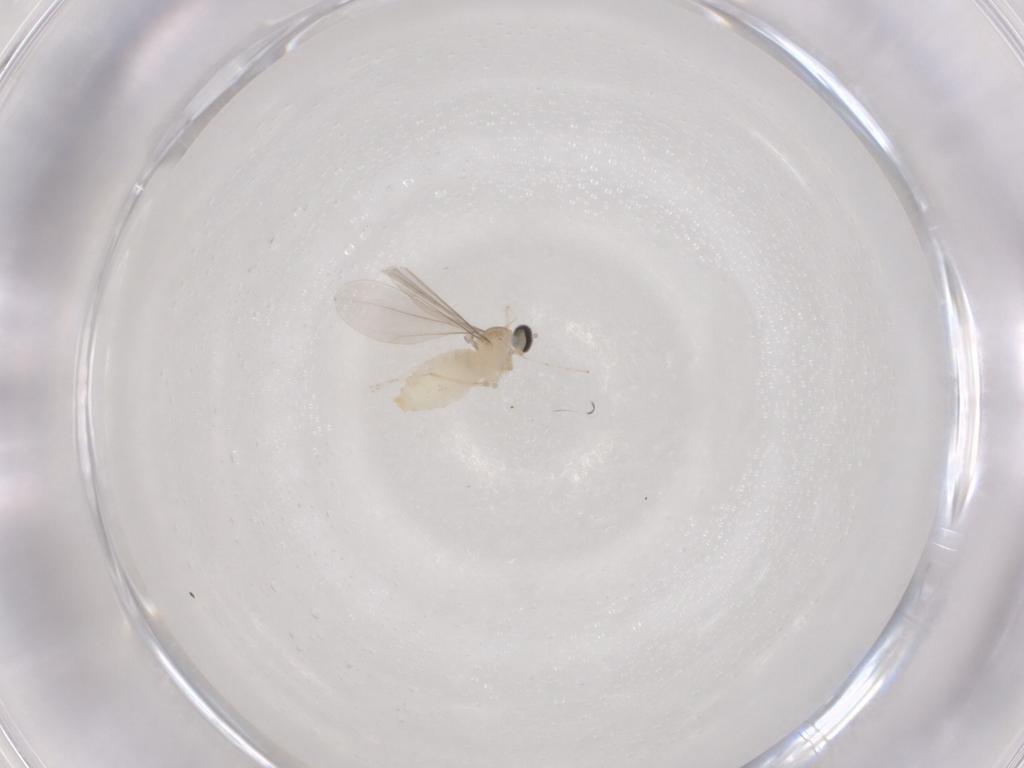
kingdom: Animalia
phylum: Arthropoda
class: Insecta
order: Diptera
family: Cecidomyiidae
